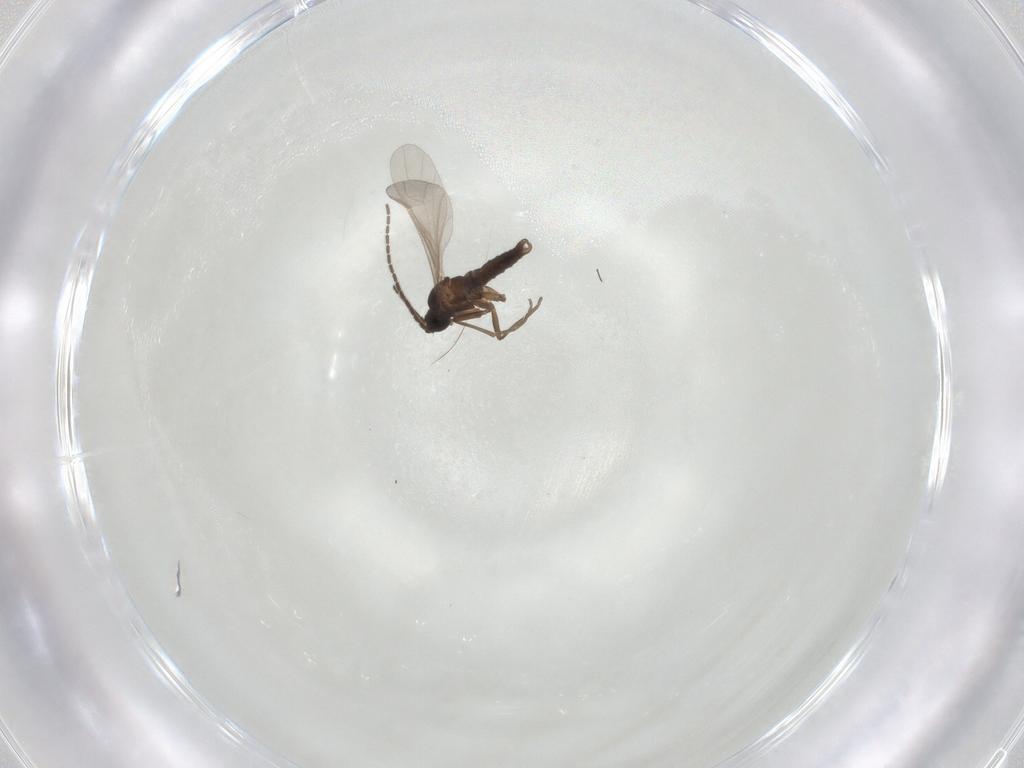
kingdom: Animalia
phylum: Arthropoda
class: Insecta
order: Diptera
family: Sciaridae
